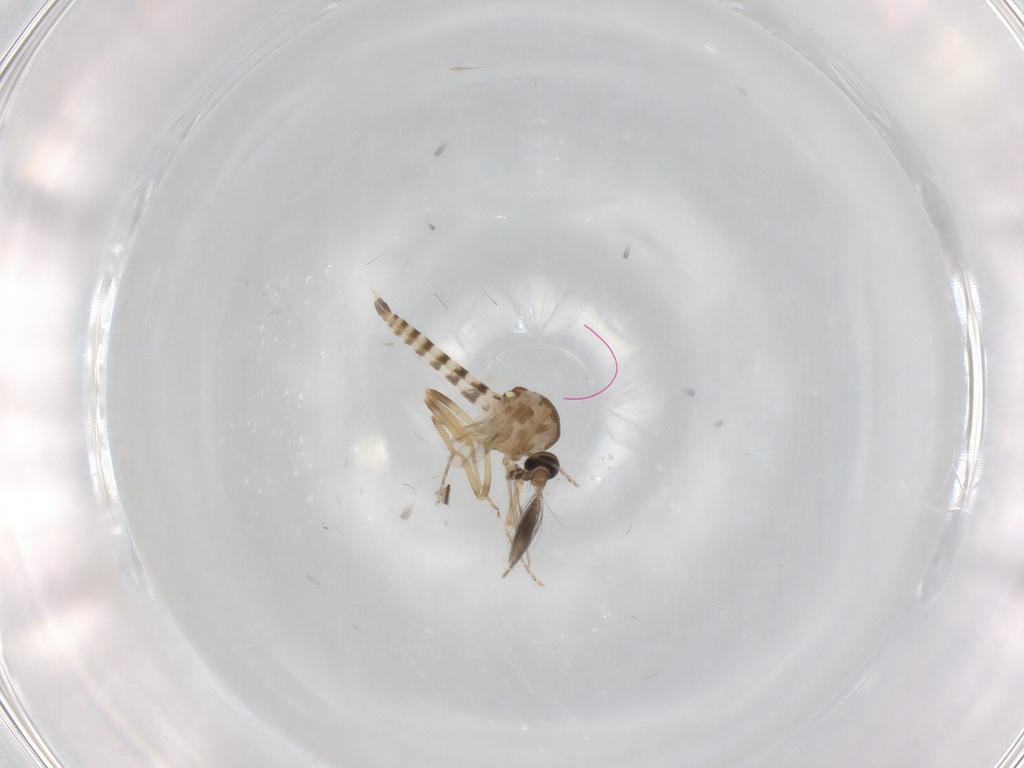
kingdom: Animalia
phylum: Arthropoda
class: Insecta
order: Diptera
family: Ceratopogonidae
